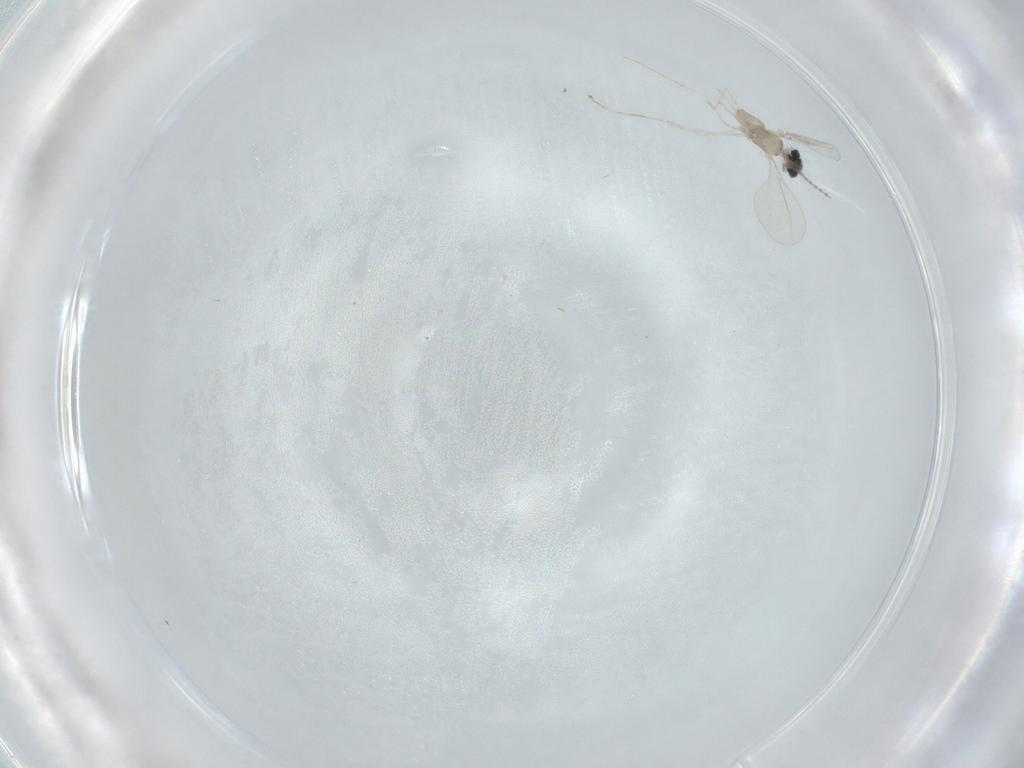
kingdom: Animalia
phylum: Arthropoda
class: Insecta
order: Diptera
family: Cecidomyiidae
